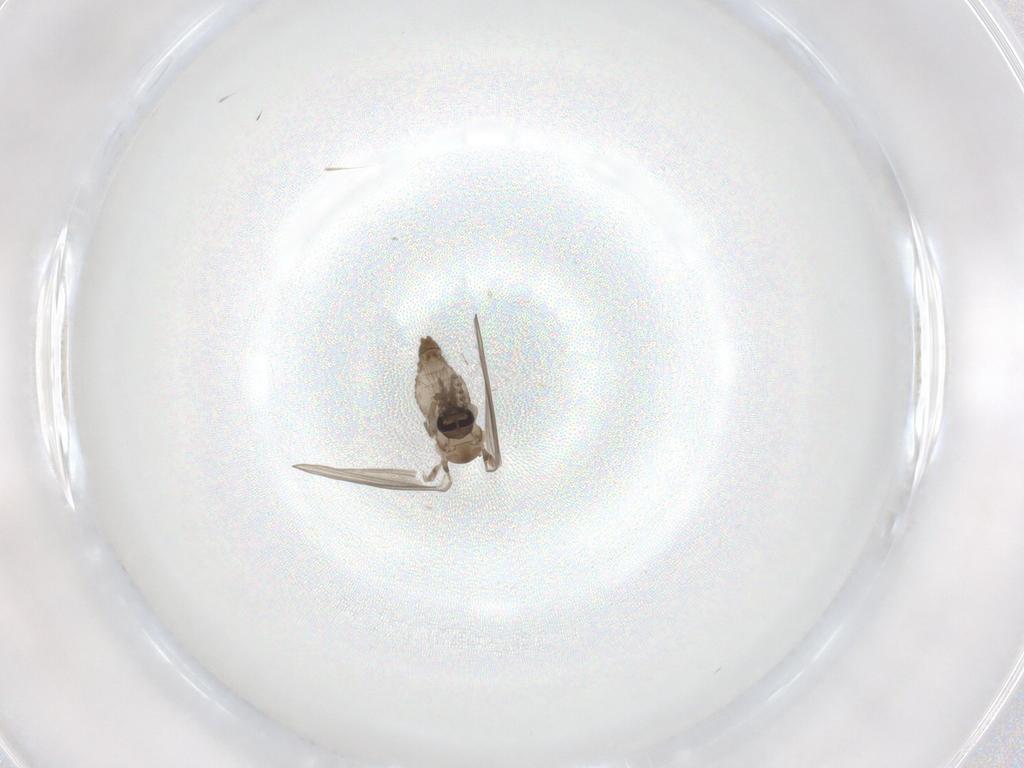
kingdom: Animalia
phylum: Arthropoda
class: Insecta
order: Diptera
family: Psychodidae
